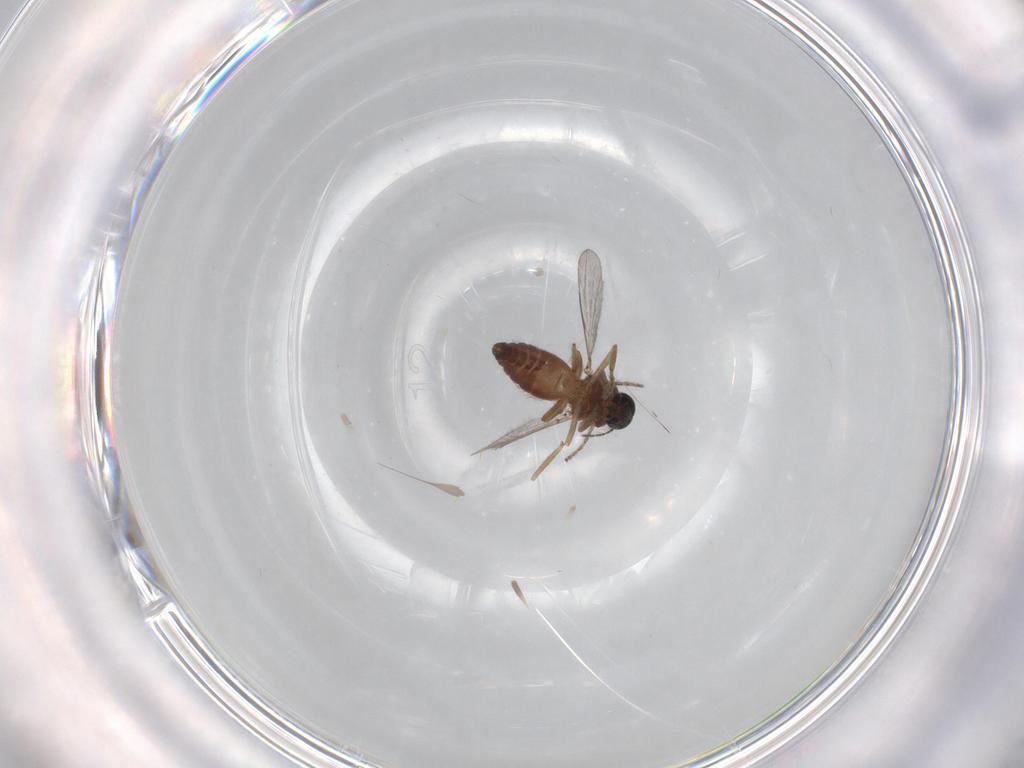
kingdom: Animalia
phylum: Arthropoda
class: Insecta
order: Diptera
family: Ceratopogonidae
